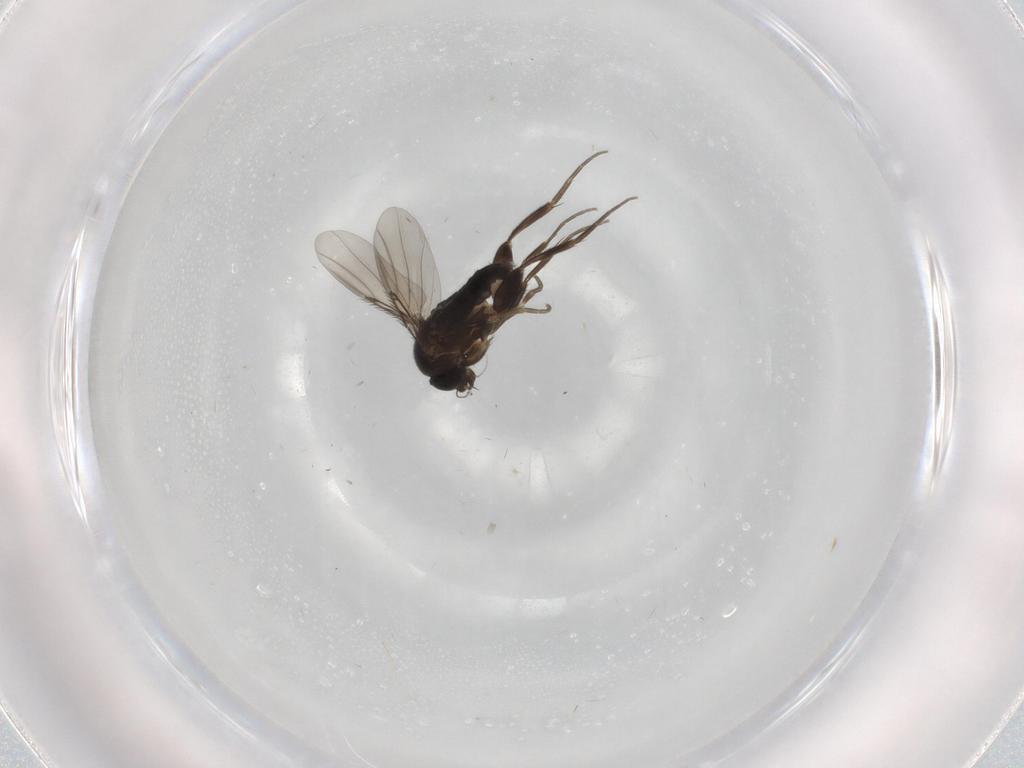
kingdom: Animalia
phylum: Arthropoda
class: Insecta
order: Diptera
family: Phoridae
